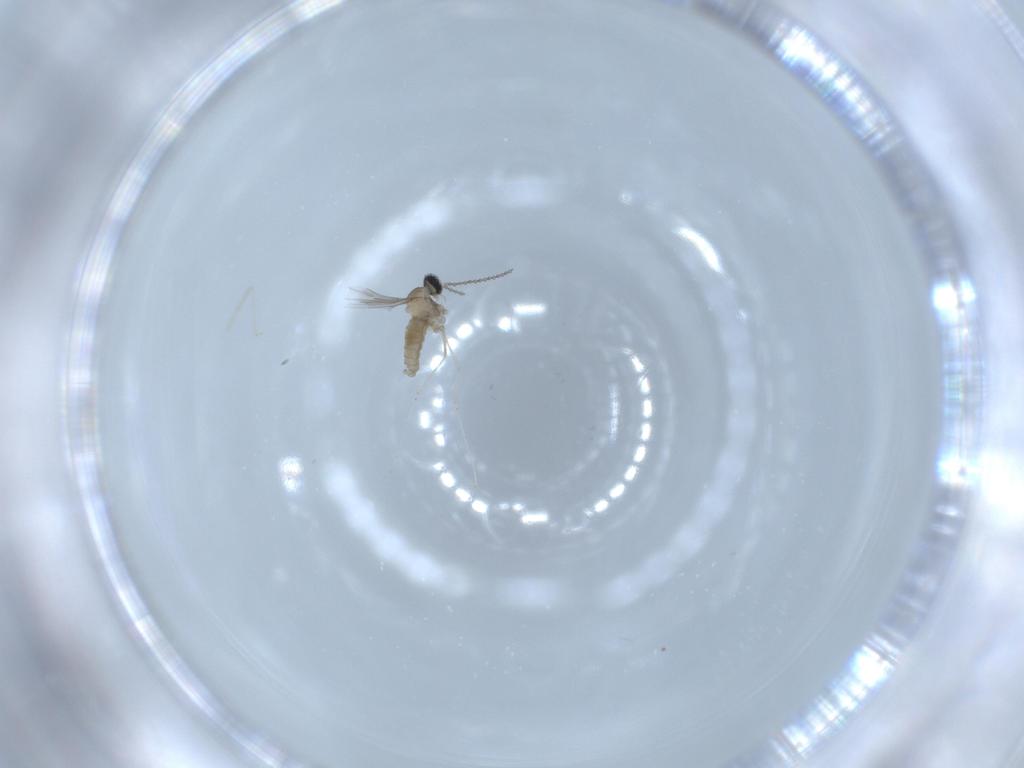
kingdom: Animalia
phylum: Arthropoda
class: Insecta
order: Diptera
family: Cecidomyiidae
